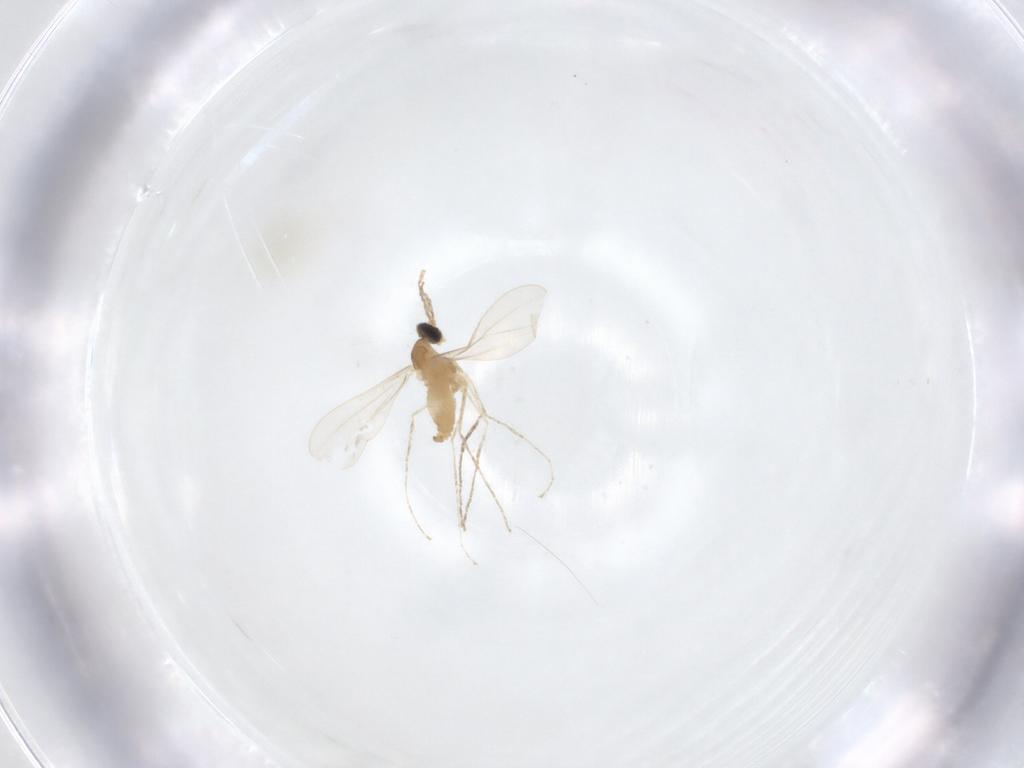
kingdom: Animalia
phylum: Arthropoda
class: Insecta
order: Diptera
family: Cecidomyiidae
